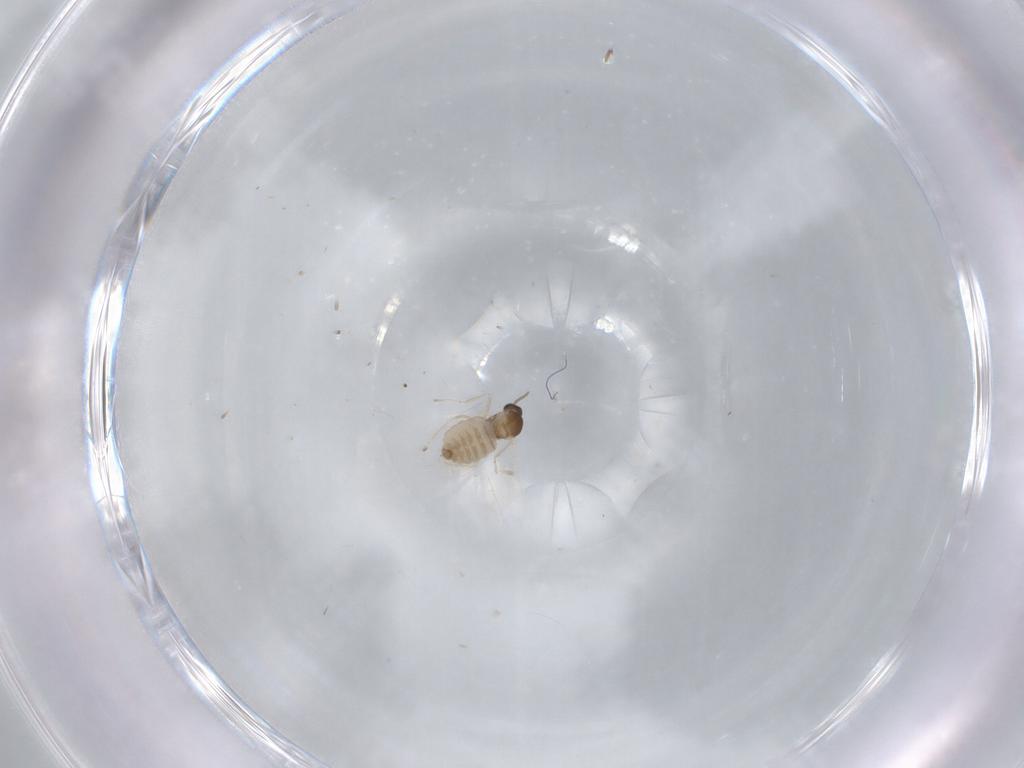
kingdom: Animalia
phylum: Arthropoda
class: Insecta
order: Diptera
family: Cecidomyiidae
